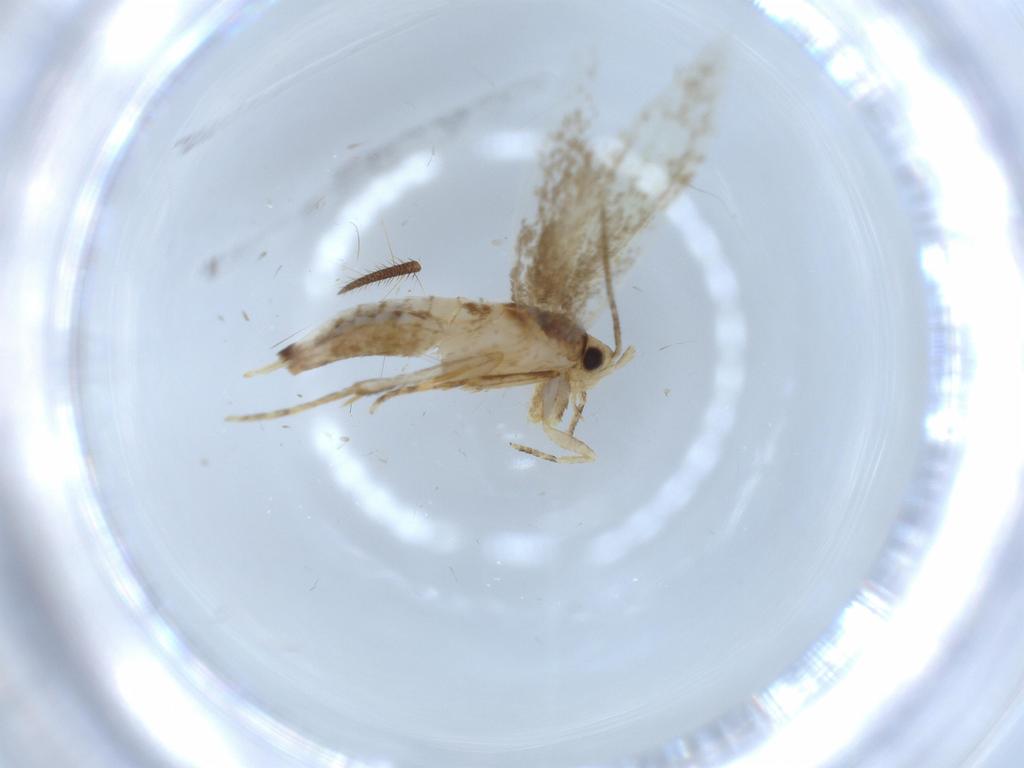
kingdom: Animalia
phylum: Arthropoda
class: Insecta
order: Lepidoptera
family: Tineidae
